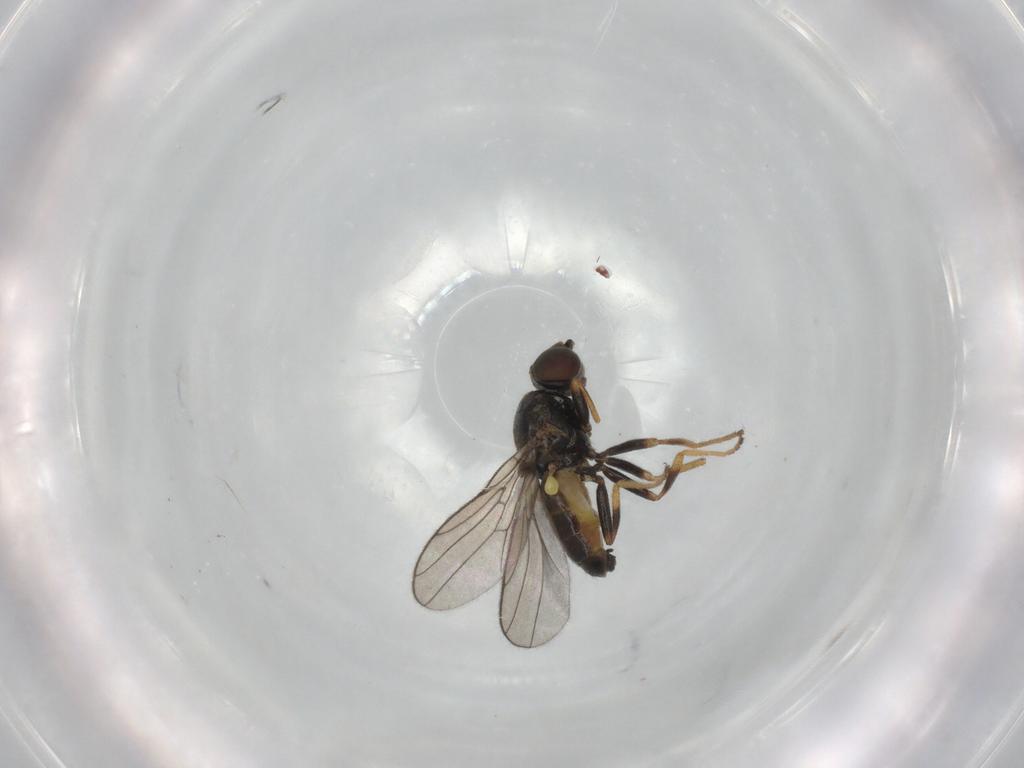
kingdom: Animalia
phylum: Arthropoda
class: Insecta
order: Diptera
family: Chloropidae
